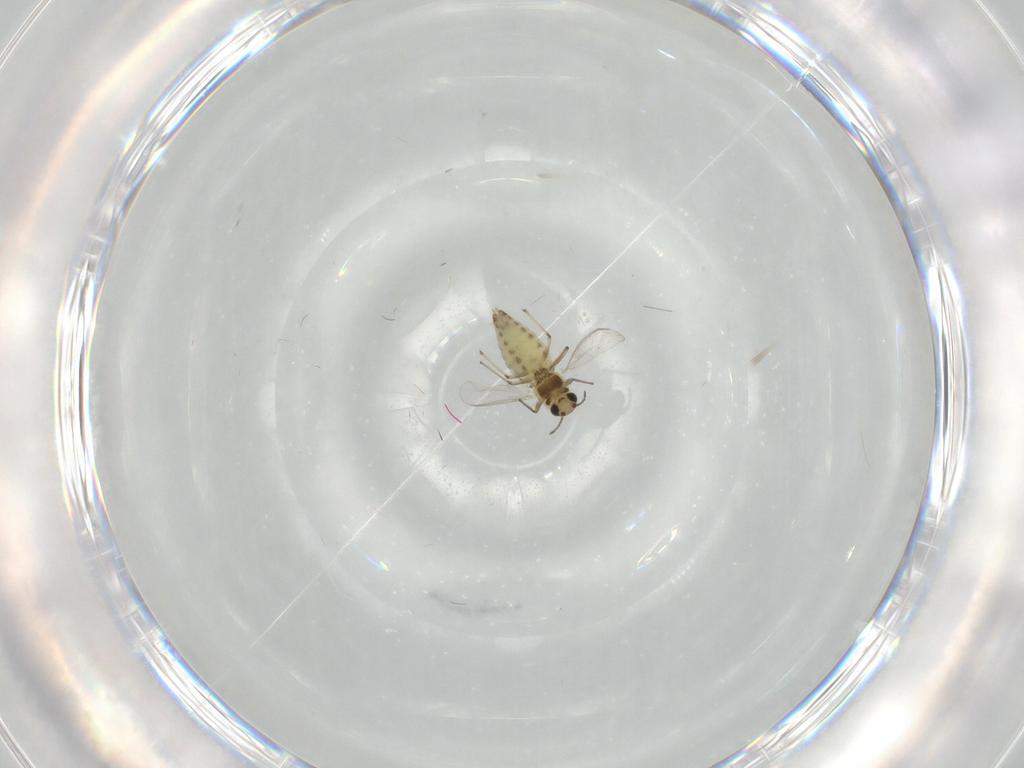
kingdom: Animalia
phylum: Arthropoda
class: Insecta
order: Diptera
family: Chironomidae
